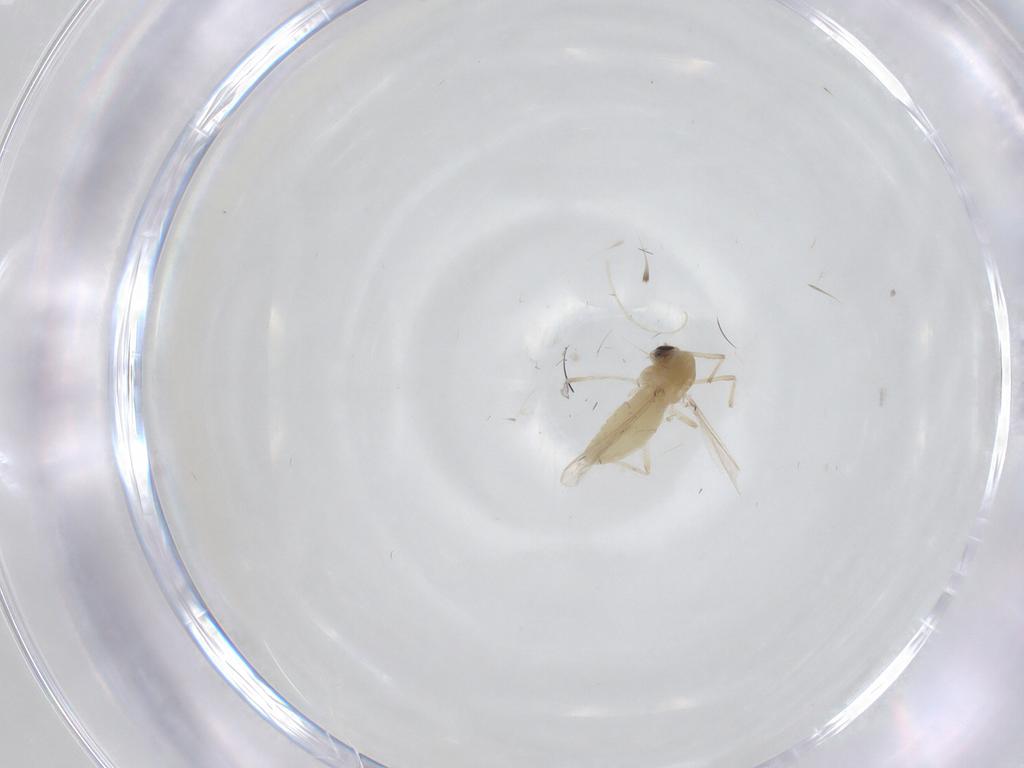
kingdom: Animalia
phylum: Arthropoda
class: Insecta
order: Diptera
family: Chironomidae
